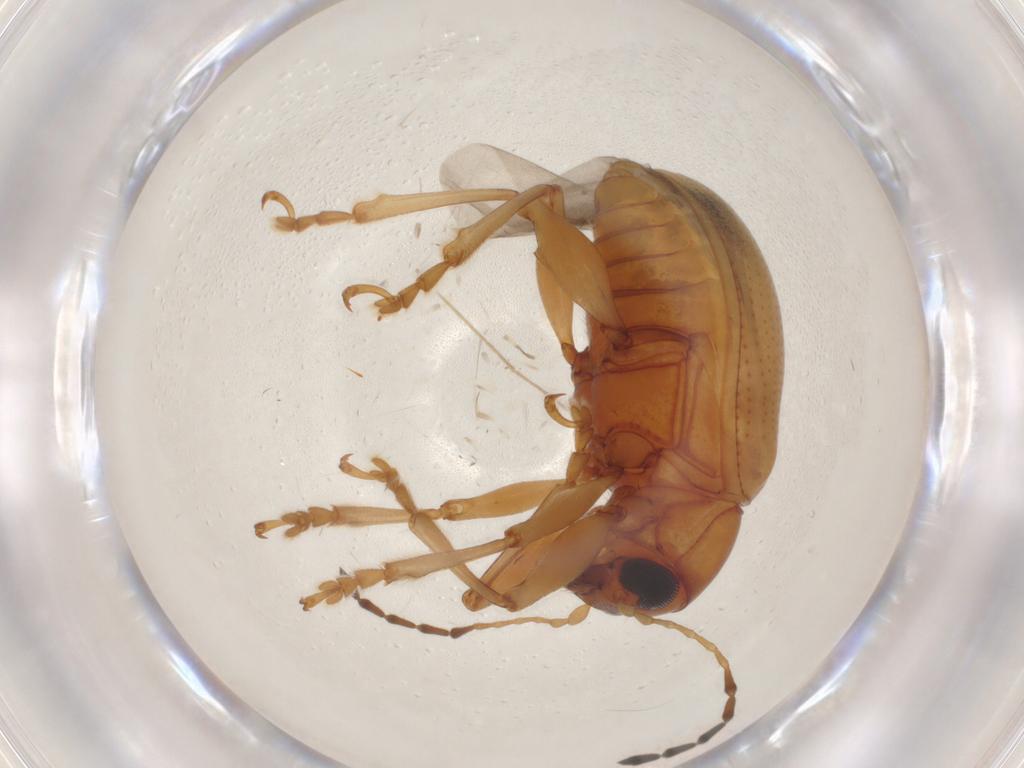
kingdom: Animalia
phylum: Arthropoda
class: Insecta
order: Coleoptera
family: Chrysomelidae
